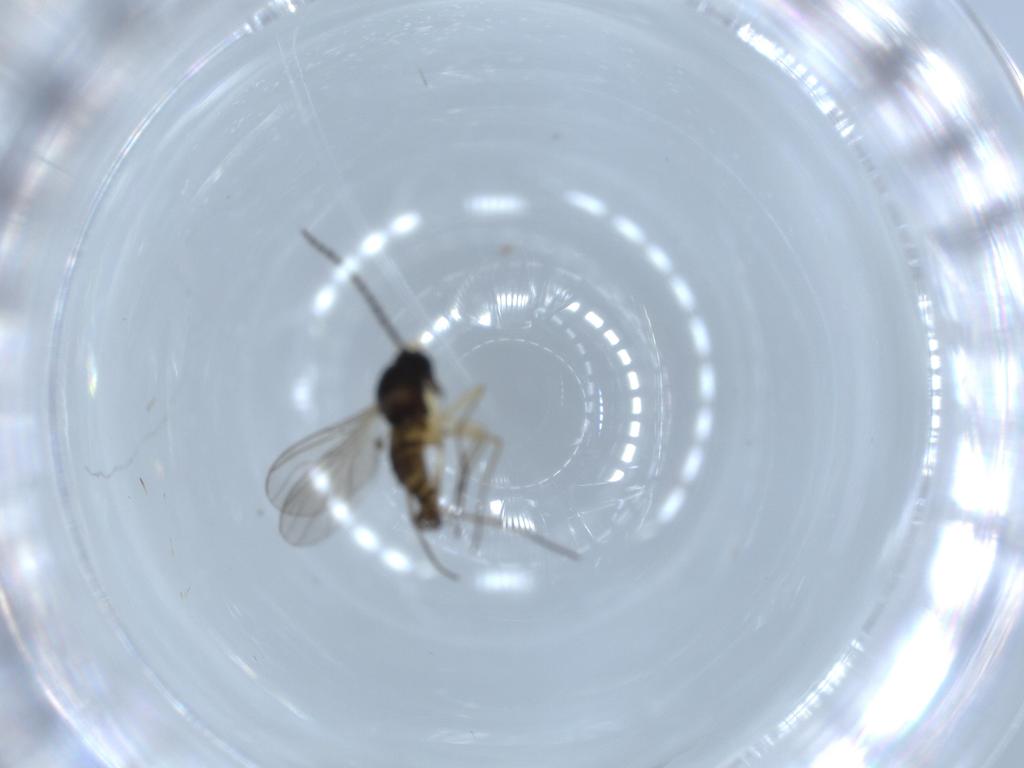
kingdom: Animalia
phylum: Arthropoda
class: Insecta
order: Diptera
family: Sciaridae
